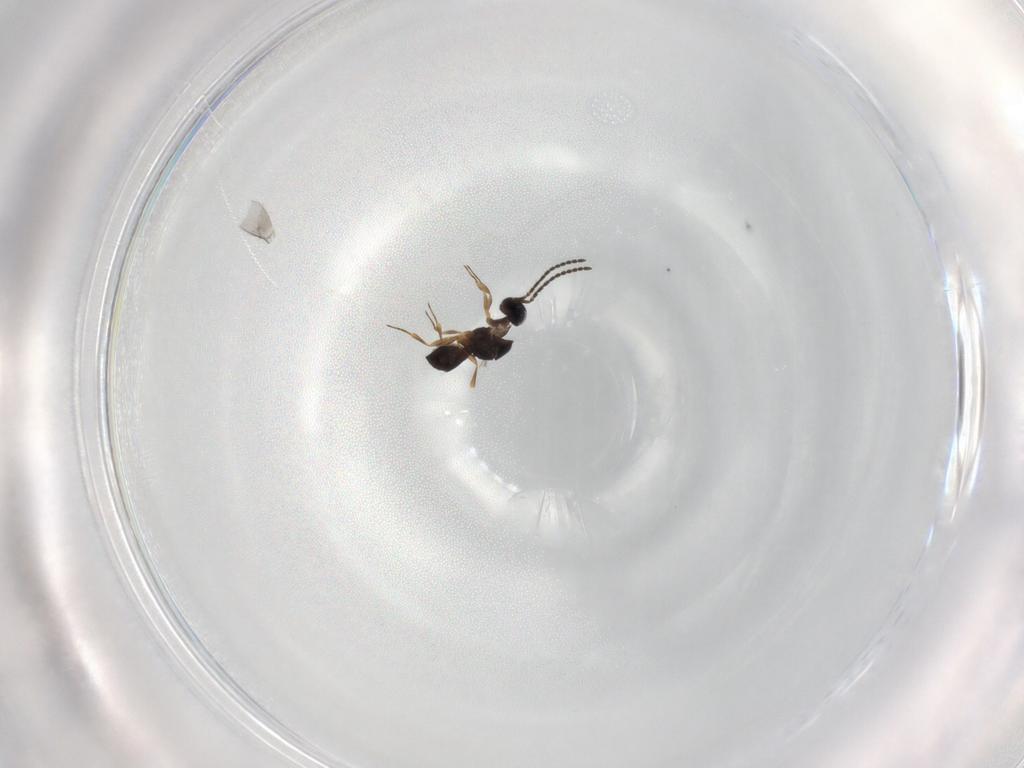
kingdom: Animalia
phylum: Arthropoda
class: Insecta
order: Hymenoptera
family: Scelionidae
